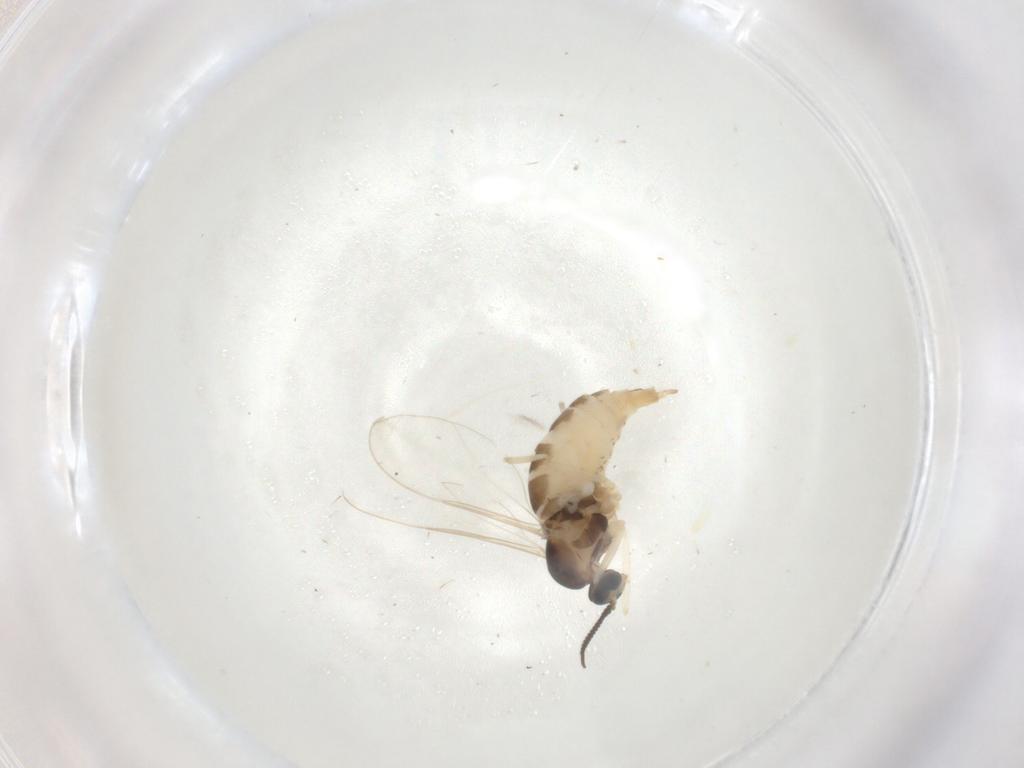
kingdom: Animalia
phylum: Arthropoda
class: Insecta
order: Diptera
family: Cecidomyiidae
